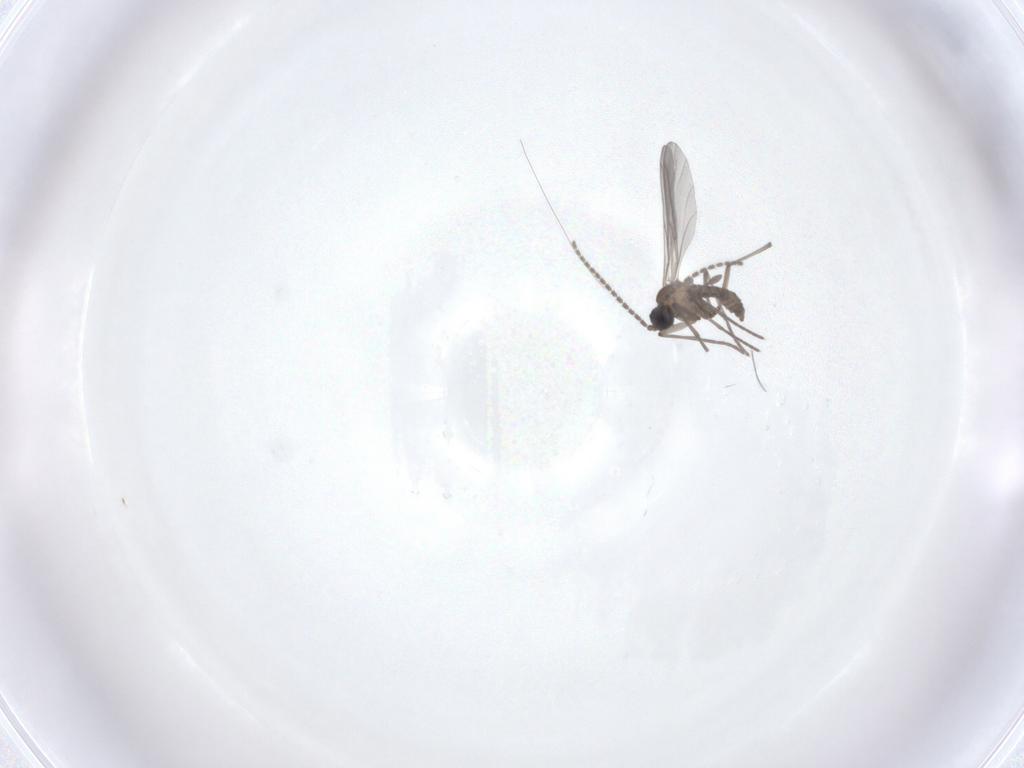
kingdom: Animalia
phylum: Arthropoda
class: Insecta
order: Diptera
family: Sciaridae
